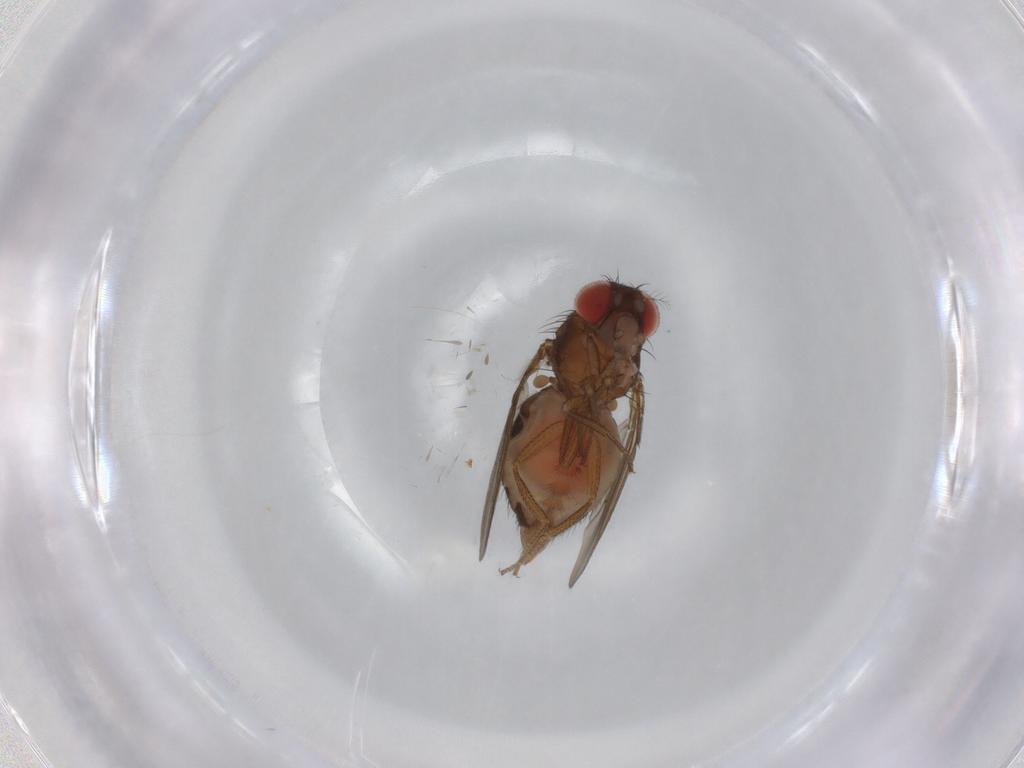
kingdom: Animalia
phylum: Arthropoda
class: Insecta
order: Diptera
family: Drosophilidae
